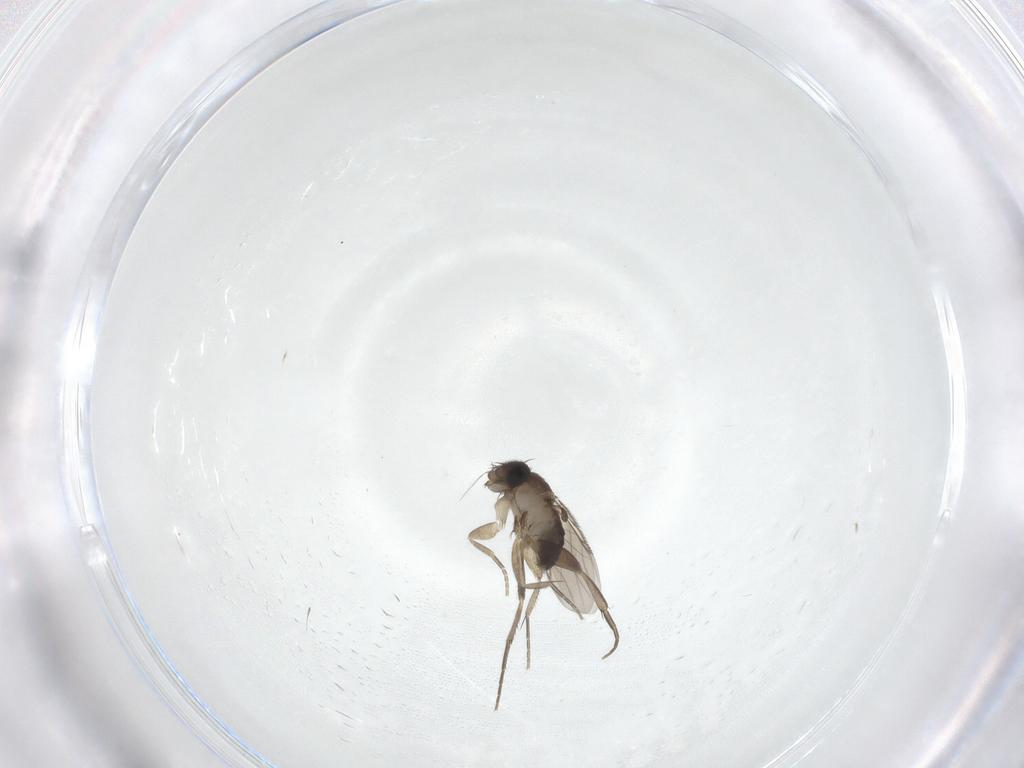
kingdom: Animalia
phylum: Arthropoda
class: Insecta
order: Diptera
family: Phoridae
